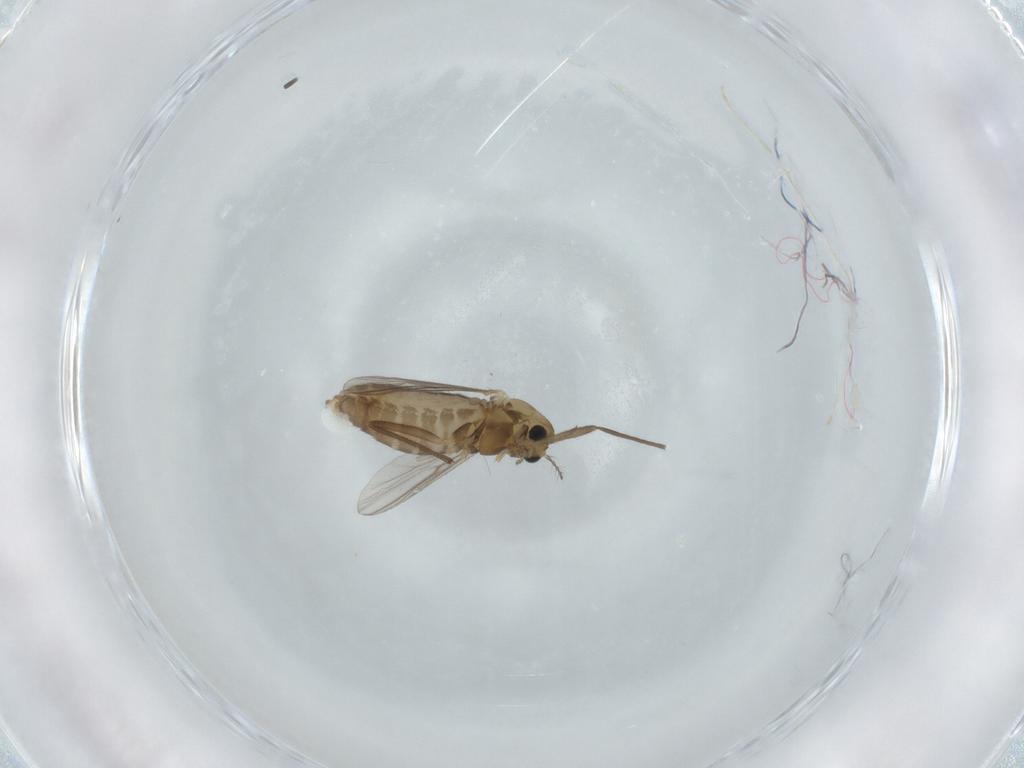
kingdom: Animalia
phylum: Arthropoda
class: Insecta
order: Diptera
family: Chironomidae
